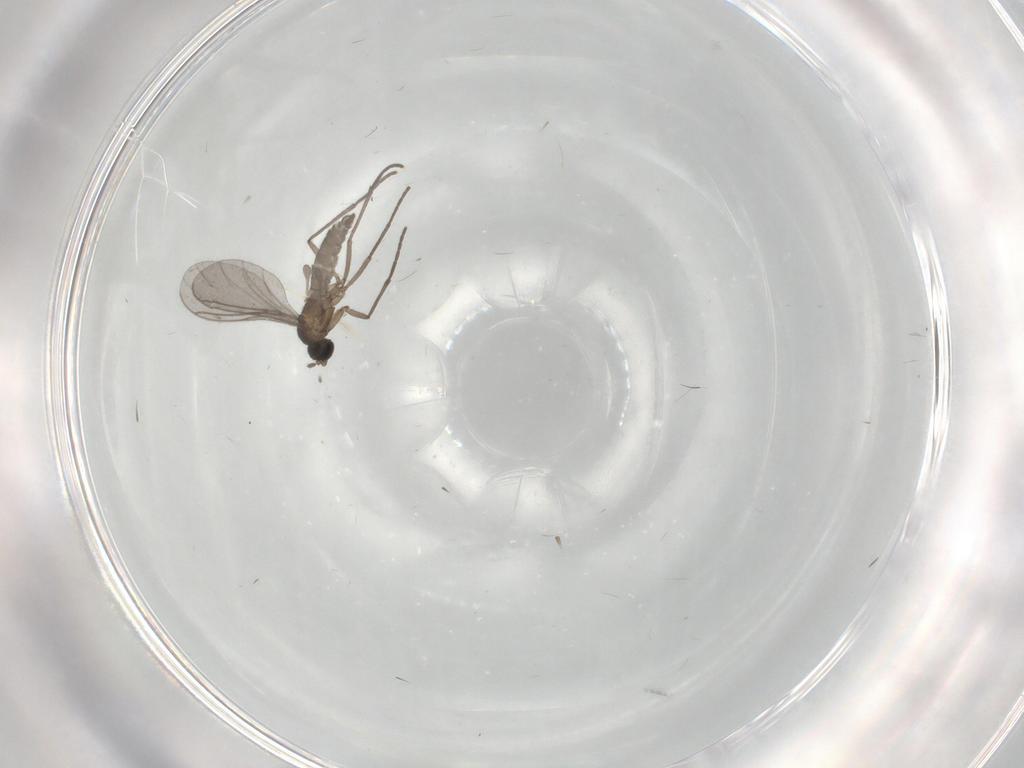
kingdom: Animalia
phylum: Arthropoda
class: Insecta
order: Diptera
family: Sciaridae
